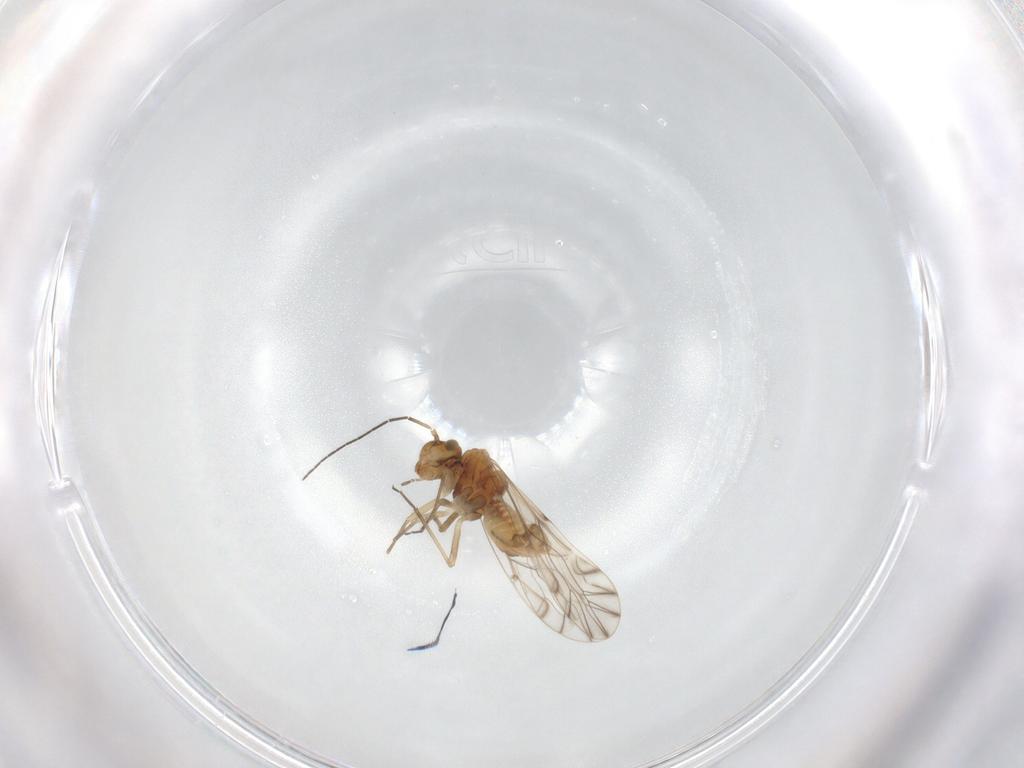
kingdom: Animalia
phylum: Arthropoda
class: Insecta
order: Psocodea
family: Lachesillidae
